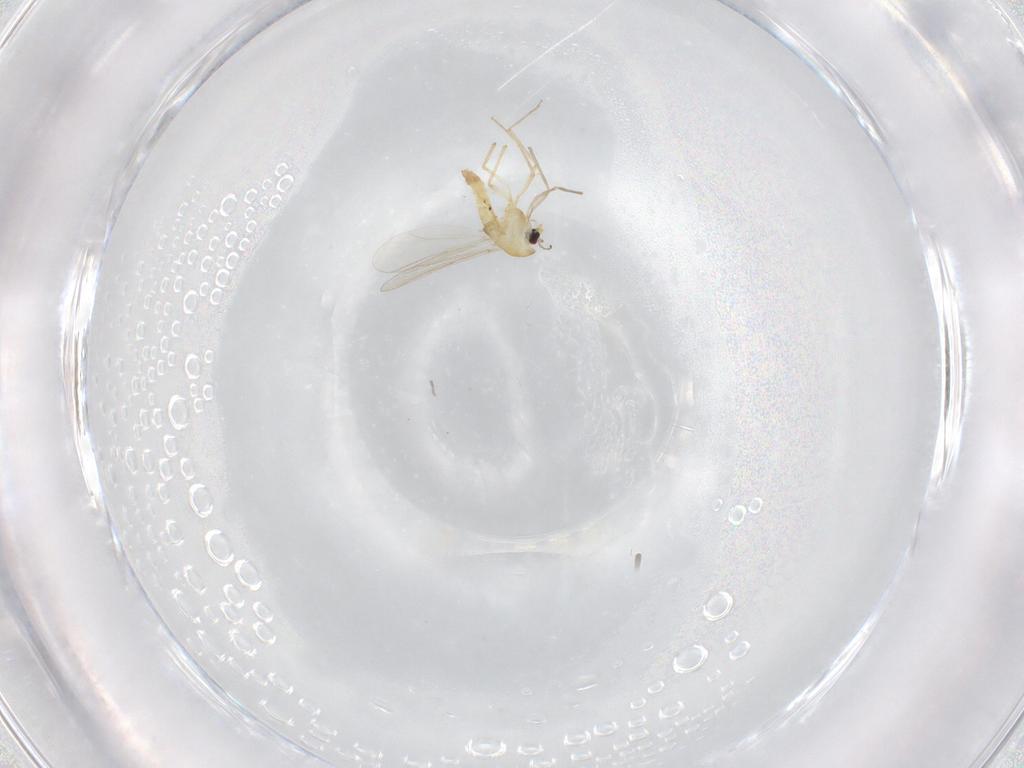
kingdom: Animalia
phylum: Arthropoda
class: Insecta
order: Diptera
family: Chironomidae
